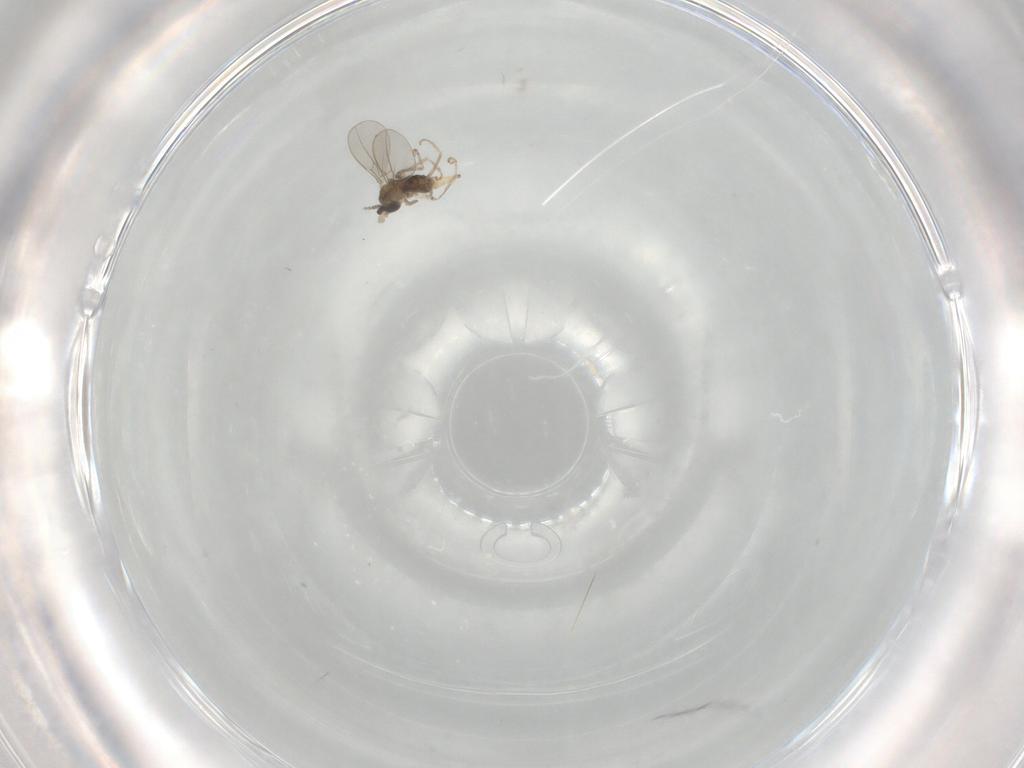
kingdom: Animalia
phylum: Arthropoda
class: Insecta
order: Diptera
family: Cecidomyiidae
